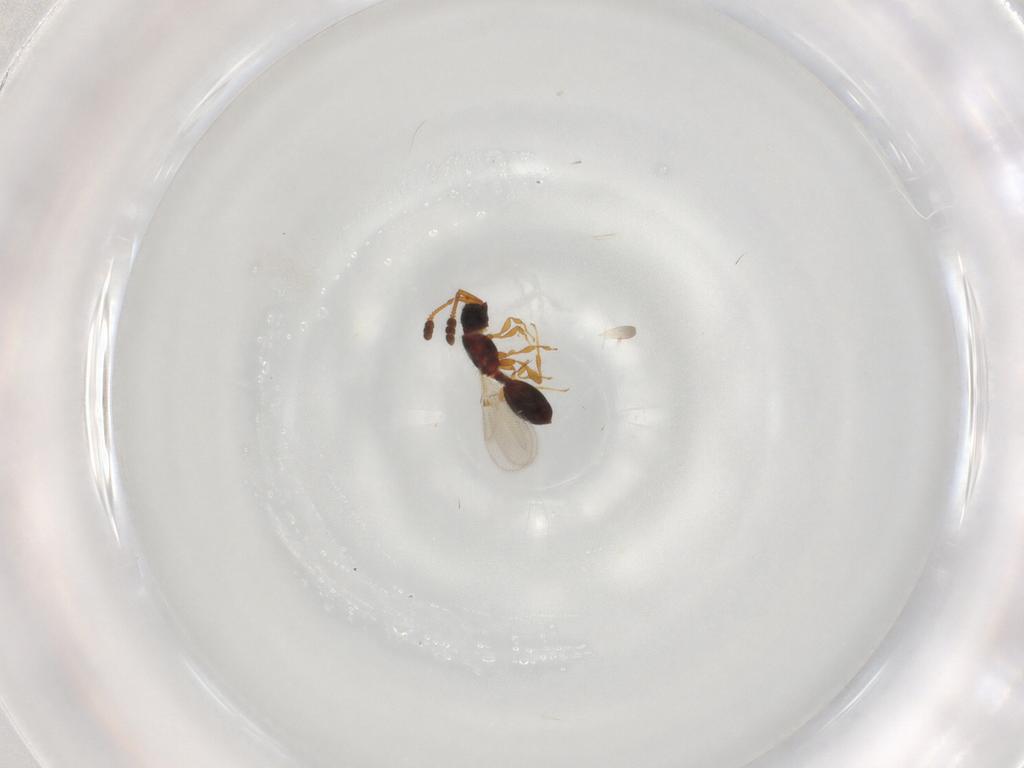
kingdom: Animalia
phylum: Arthropoda
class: Insecta
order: Hymenoptera
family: Diapriidae
